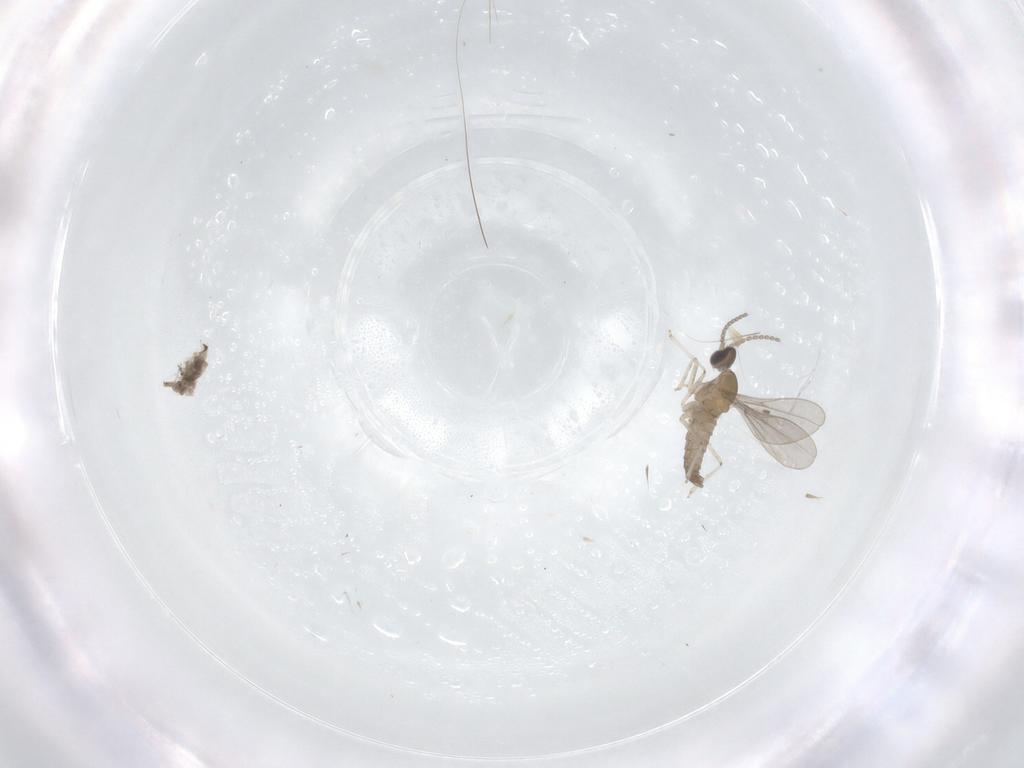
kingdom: Animalia
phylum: Arthropoda
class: Insecta
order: Diptera
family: Cecidomyiidae
